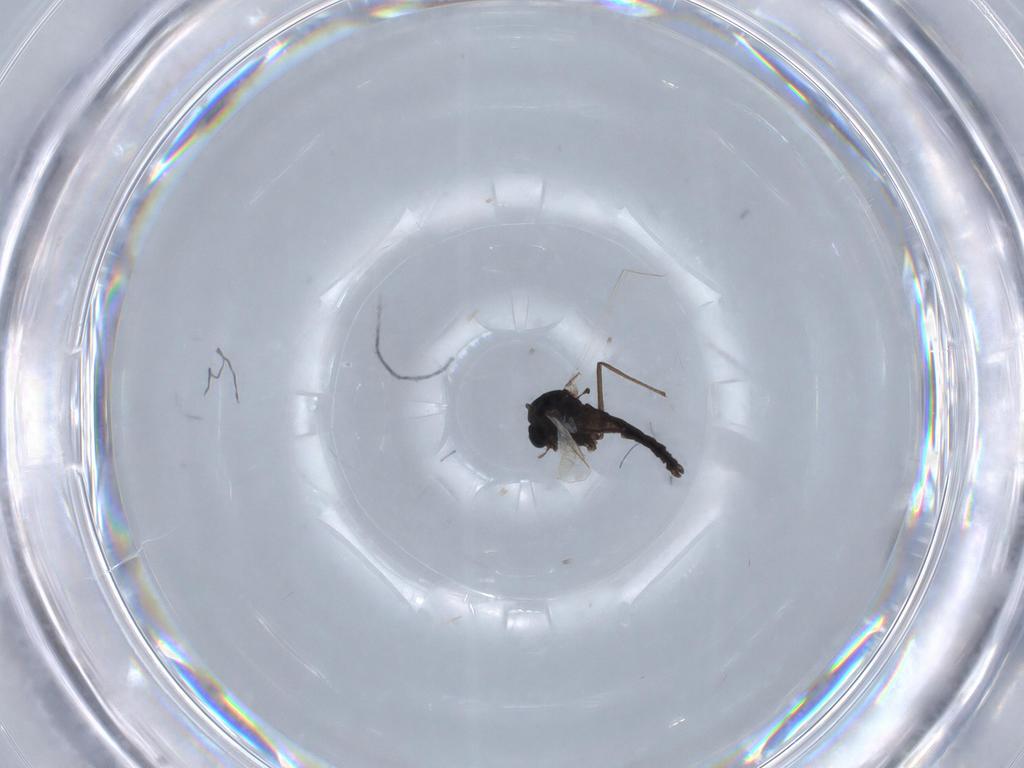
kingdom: Animalia
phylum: Arthropoda
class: Insecta
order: Diptera
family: Chironomidae
